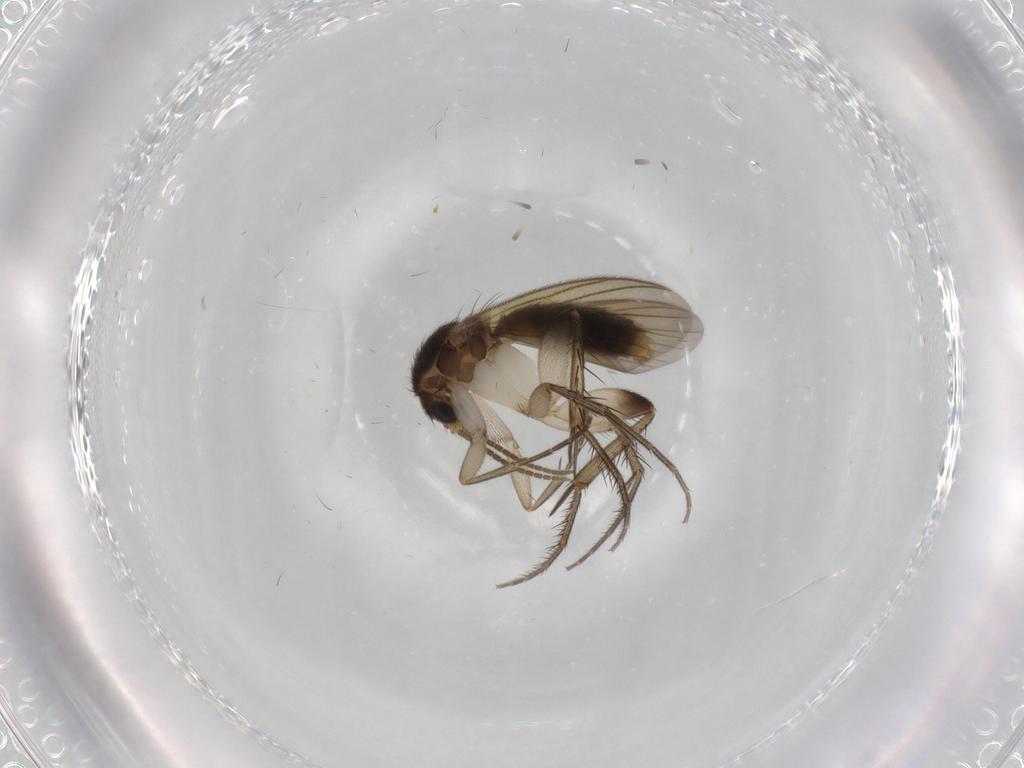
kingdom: Animalia
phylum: Arthropoda
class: Insecta
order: Diptera
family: Mycetophilidae
